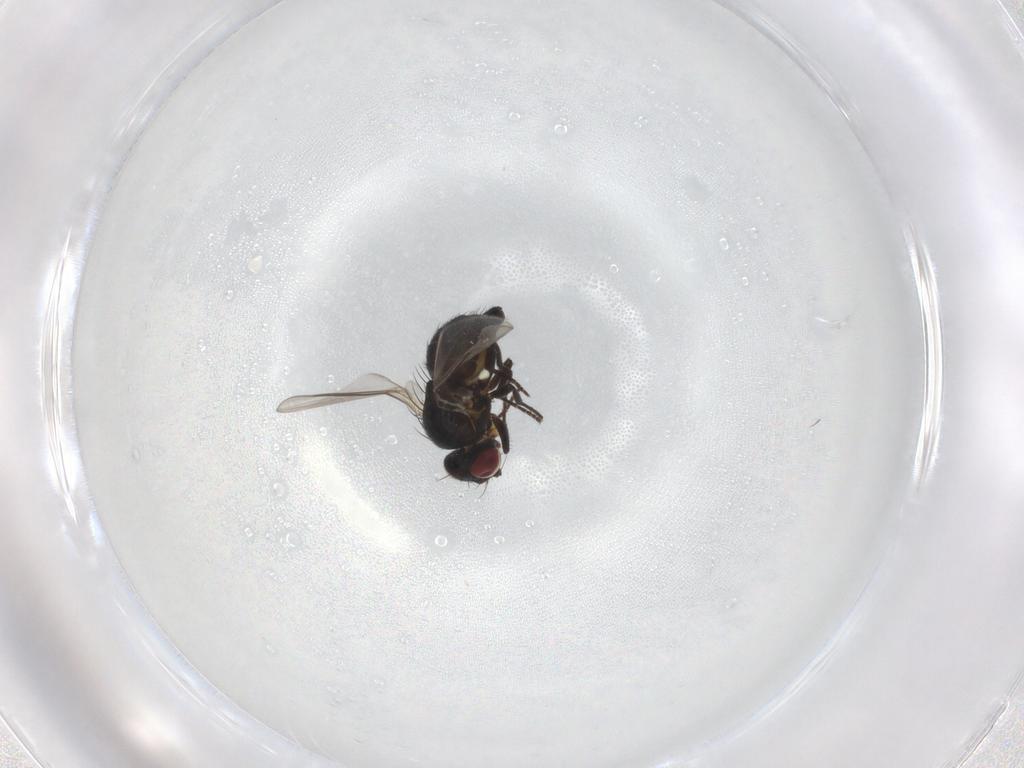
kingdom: Animalia
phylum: Arthropoda
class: Insecta
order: Diptera
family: Agromyzidae
